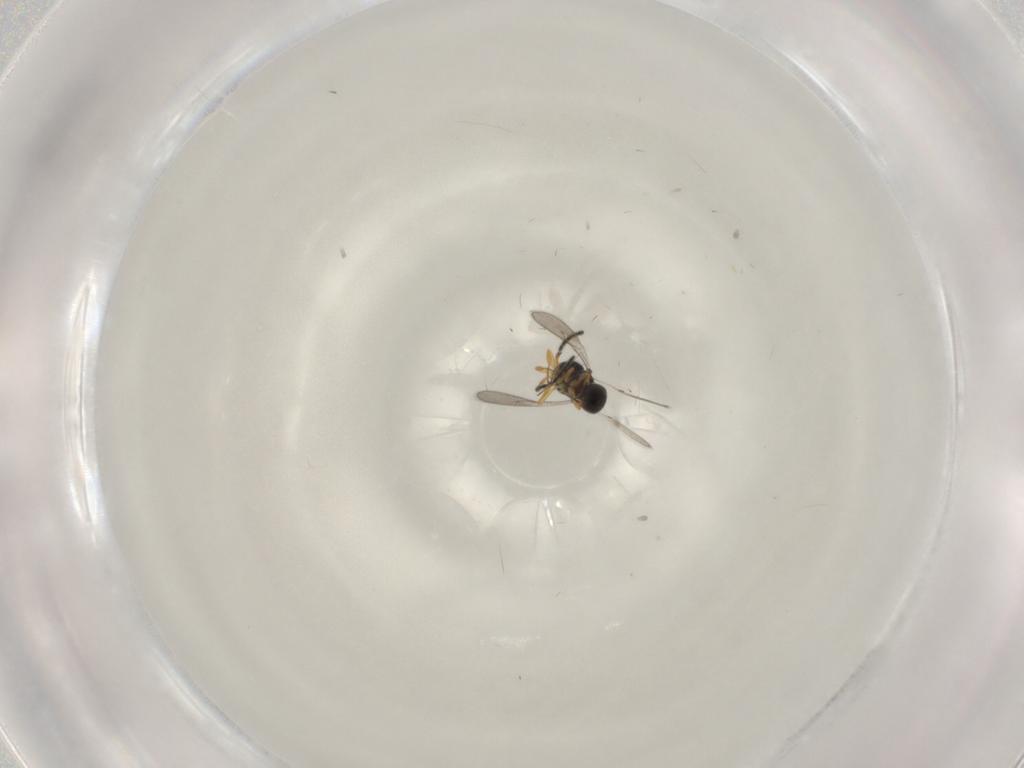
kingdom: Animalia
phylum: Arthropoda
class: Insecta
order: Hymenoptera
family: Scelionidae
